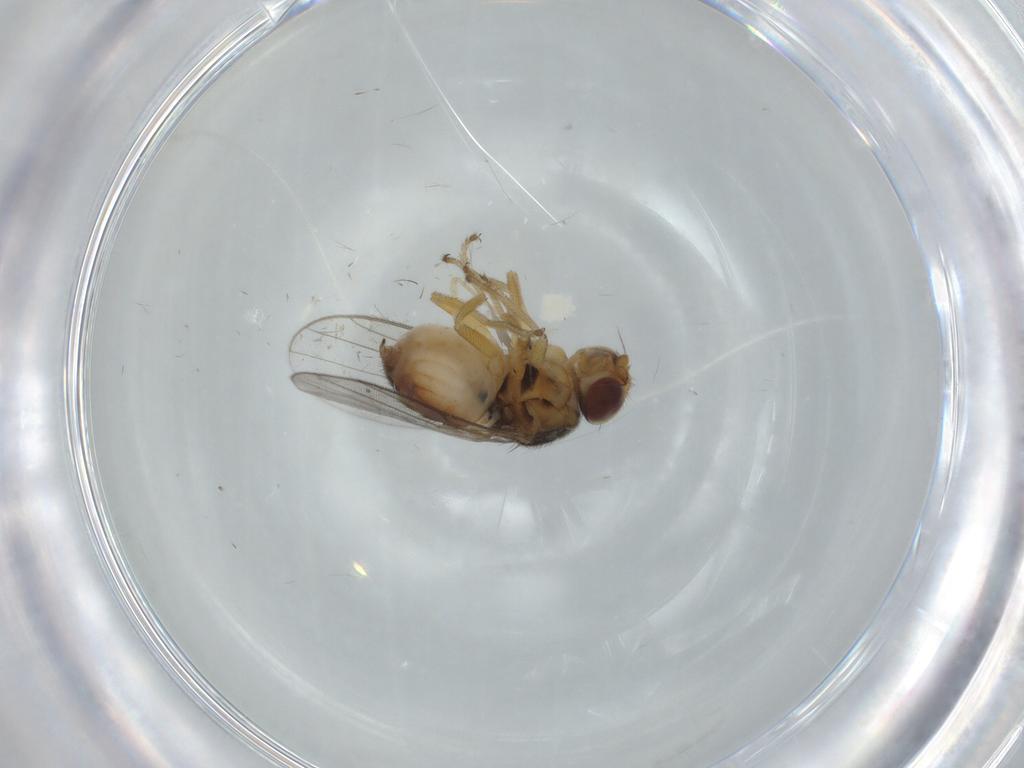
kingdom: Animalia
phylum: Arthropoda
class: Insecta
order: Diptera
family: Chloropidae
